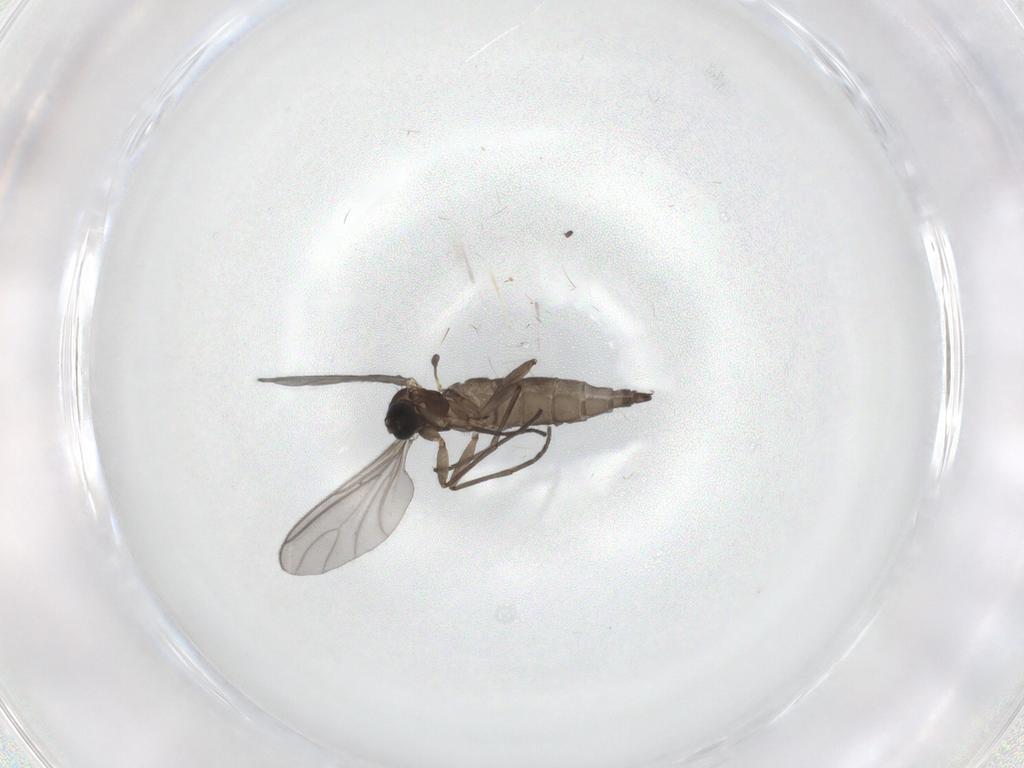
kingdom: Animalia
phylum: Arthropoda
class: Insecta
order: Diptera
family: Sciaridae
